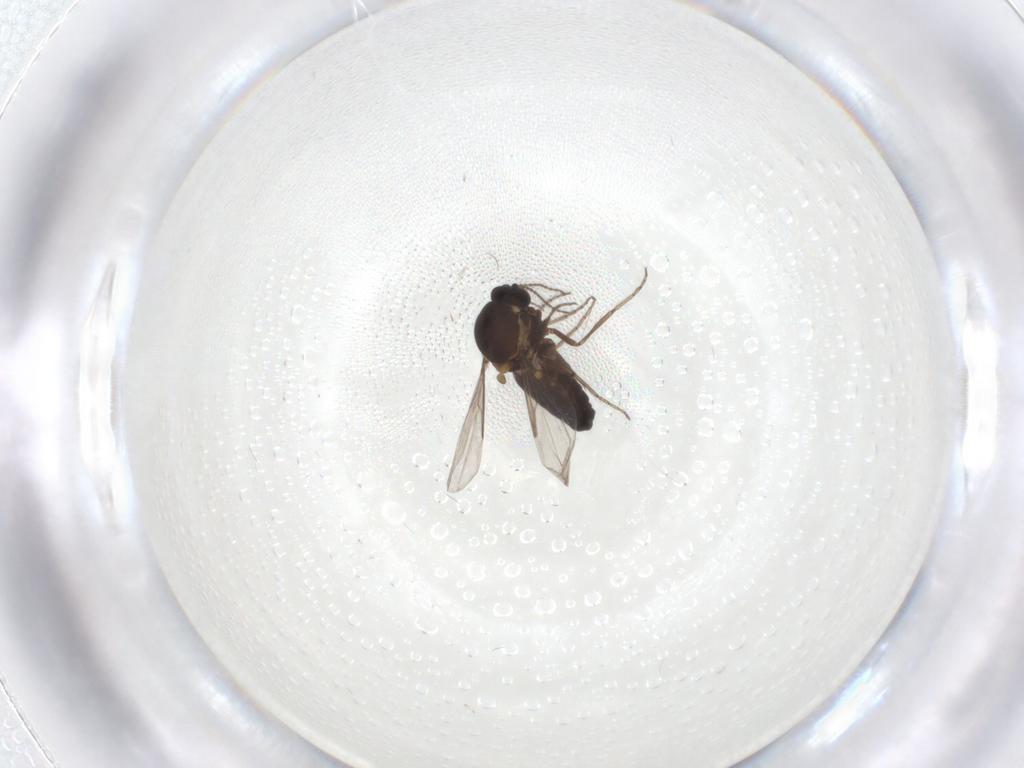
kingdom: Animalia
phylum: Arthropoda
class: Insecta
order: Diptera
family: Ceratopogonidae
